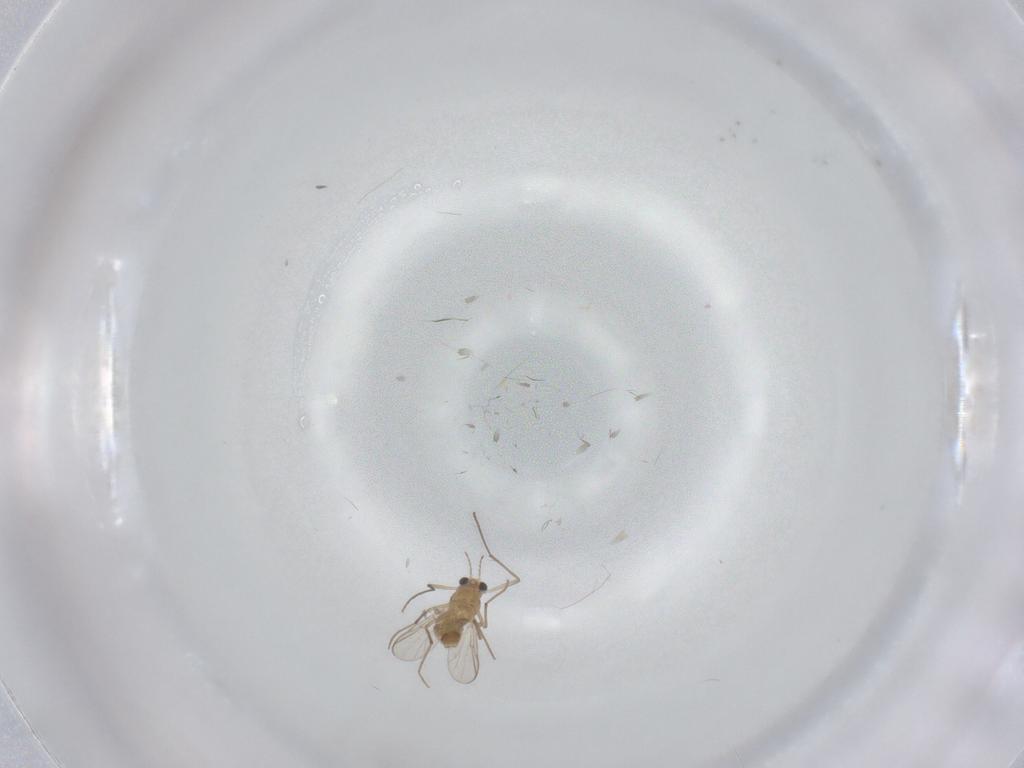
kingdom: Animalia
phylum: Arthropoda
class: Insecta
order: Diptera
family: Chironomidae
